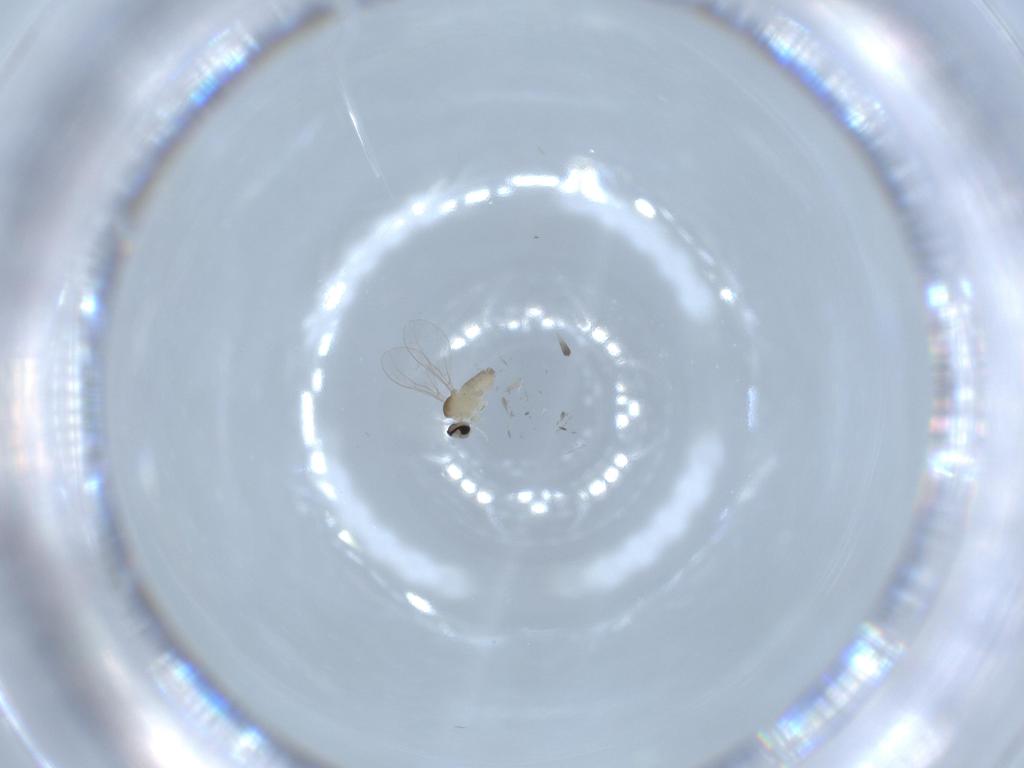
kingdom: Animalia
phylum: Arthropoda
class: Insecta
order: Diptera
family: Cecidomyiidae
